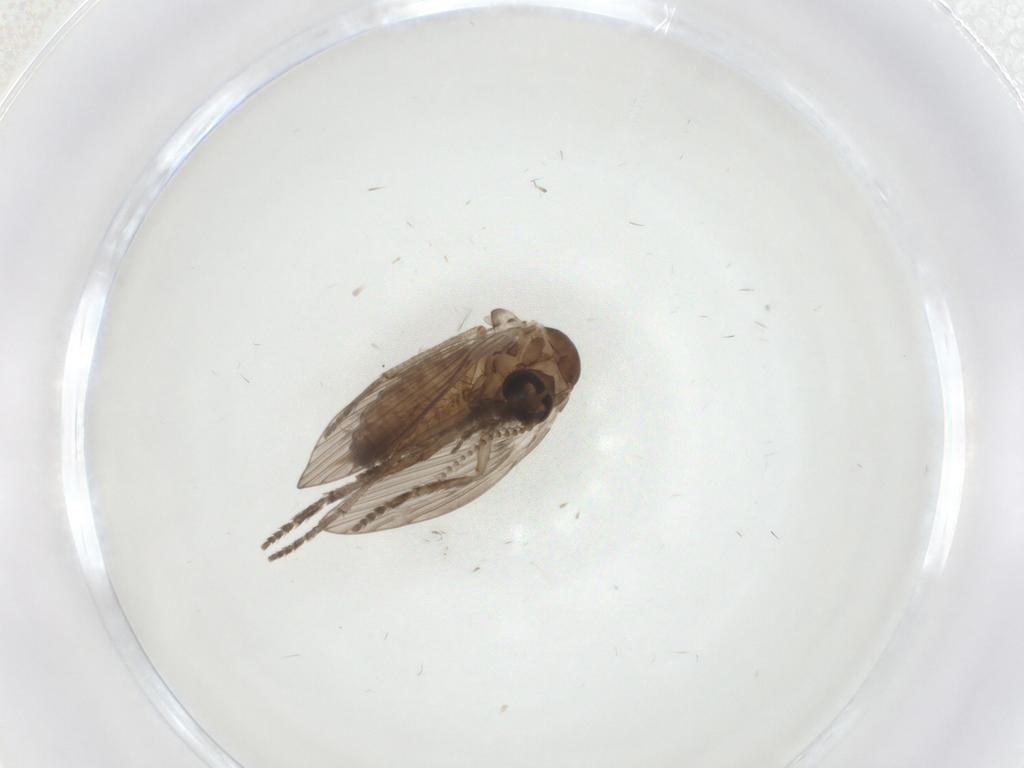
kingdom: Animalia
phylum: Arthropoda
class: Insecta
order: Diptera
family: Psychodidae
